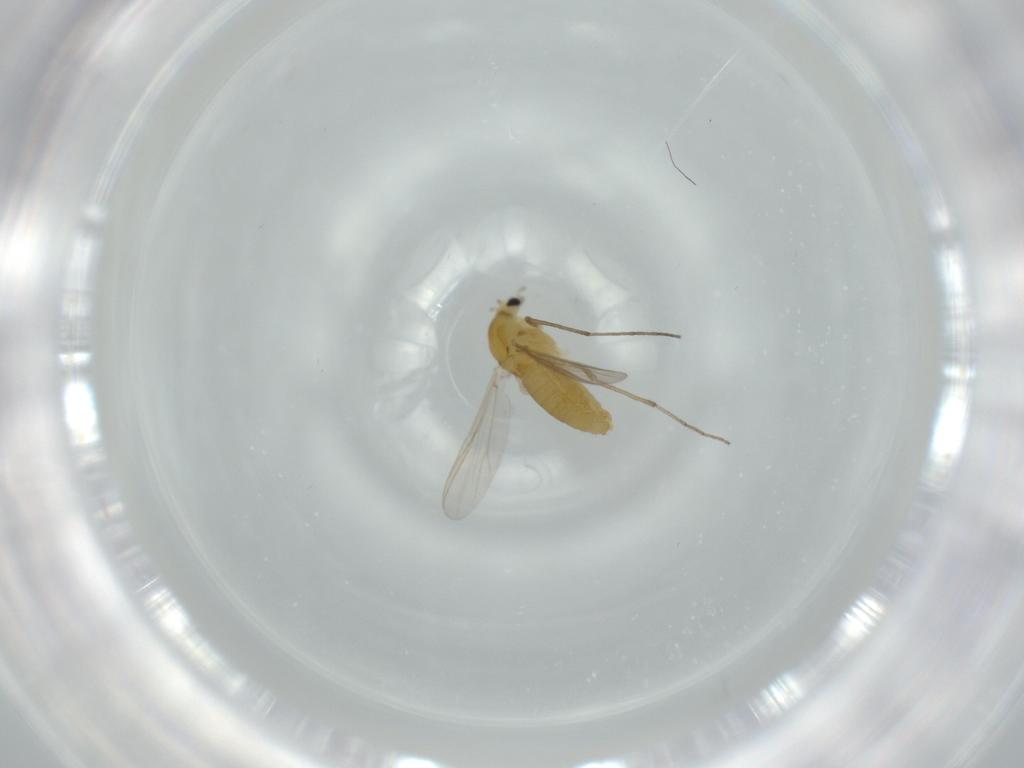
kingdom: Animalia
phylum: Arthropoda
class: Insecta
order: Diptera
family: Chironomidae
